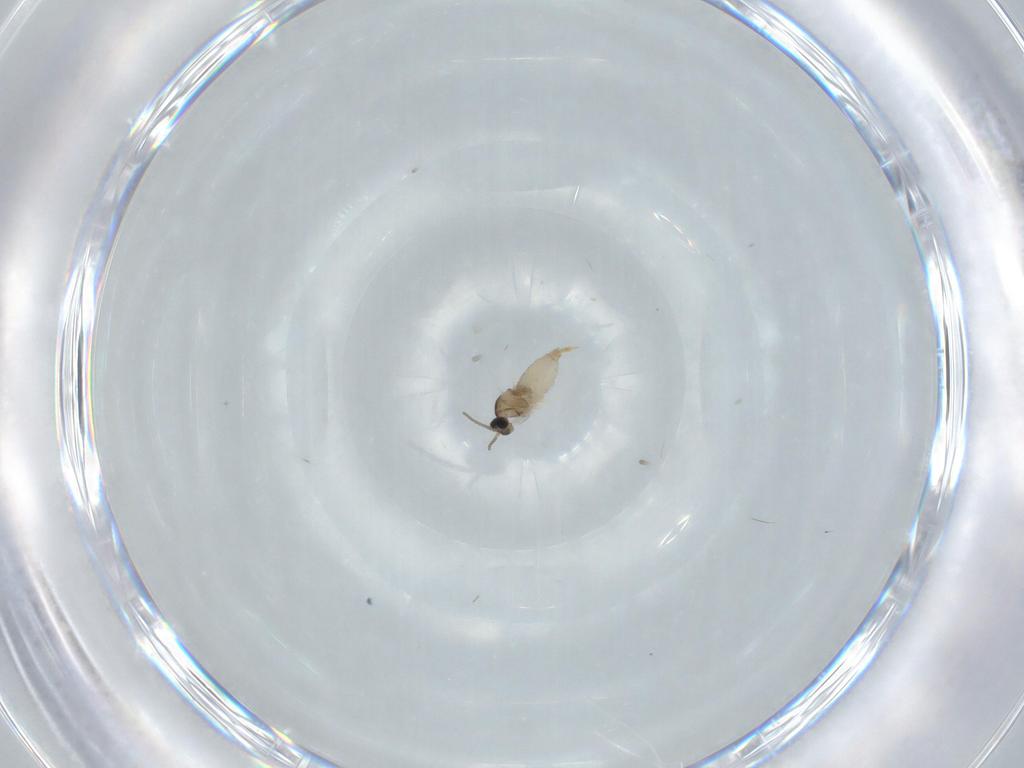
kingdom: Animalia
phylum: Arthropoda
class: Insecta
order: Diptera
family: Cecidomyiidae
